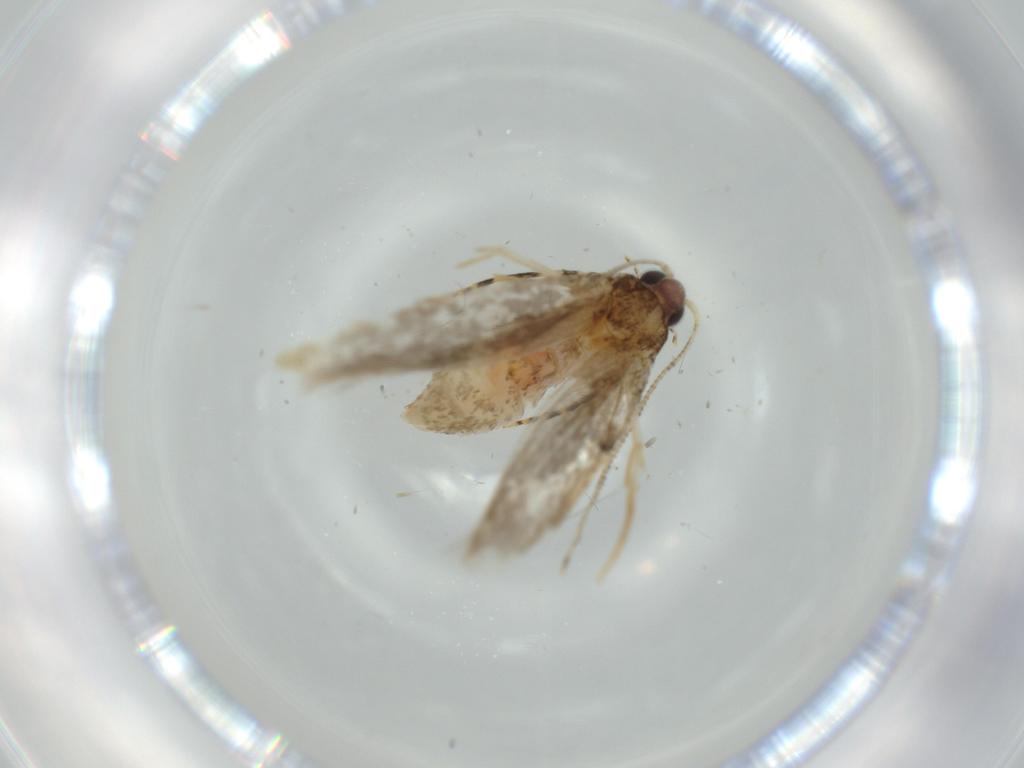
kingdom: Animalia
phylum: Arthropoda
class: Insecta
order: Lepidoptera
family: Tineidae
